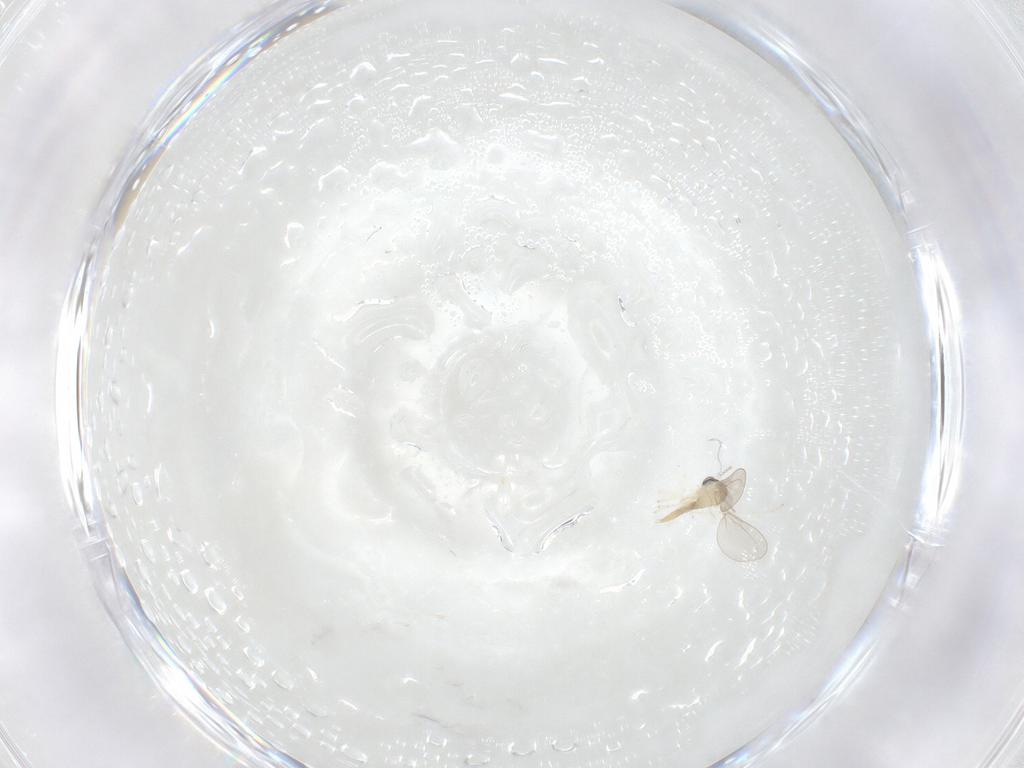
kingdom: Animalia
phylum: Arthropoda
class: Insecta
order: Diptera
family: Cecidomyiidae
